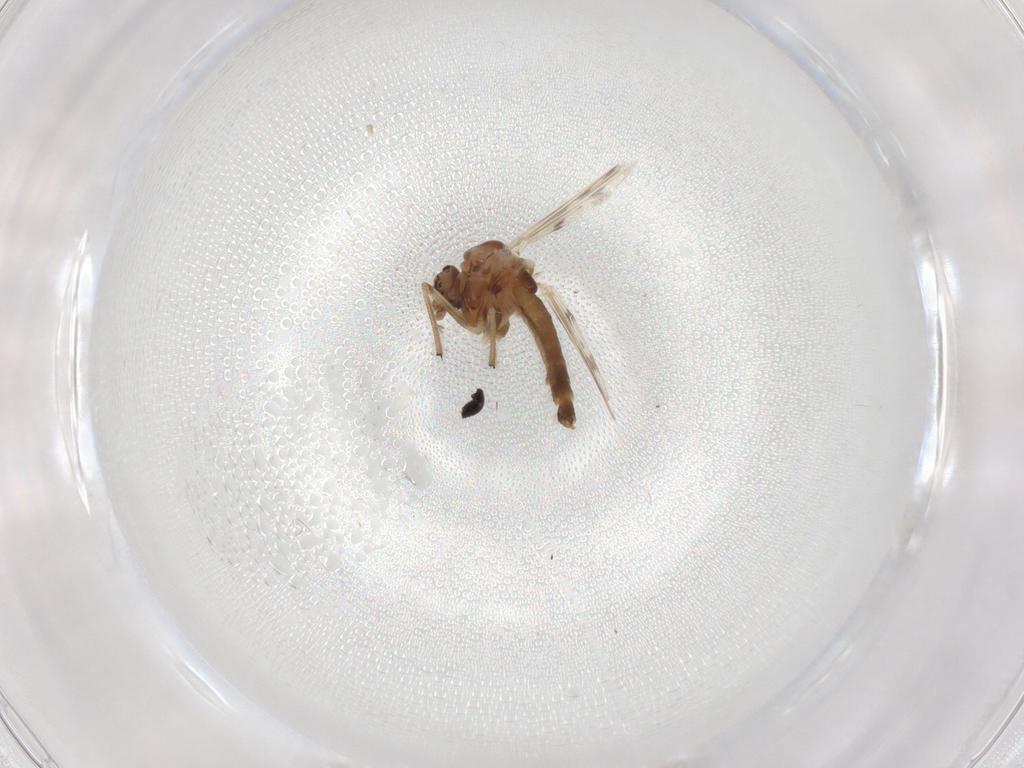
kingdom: Animalia
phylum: Arthropoda
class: Insecta
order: Diptera
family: Chironomidae
